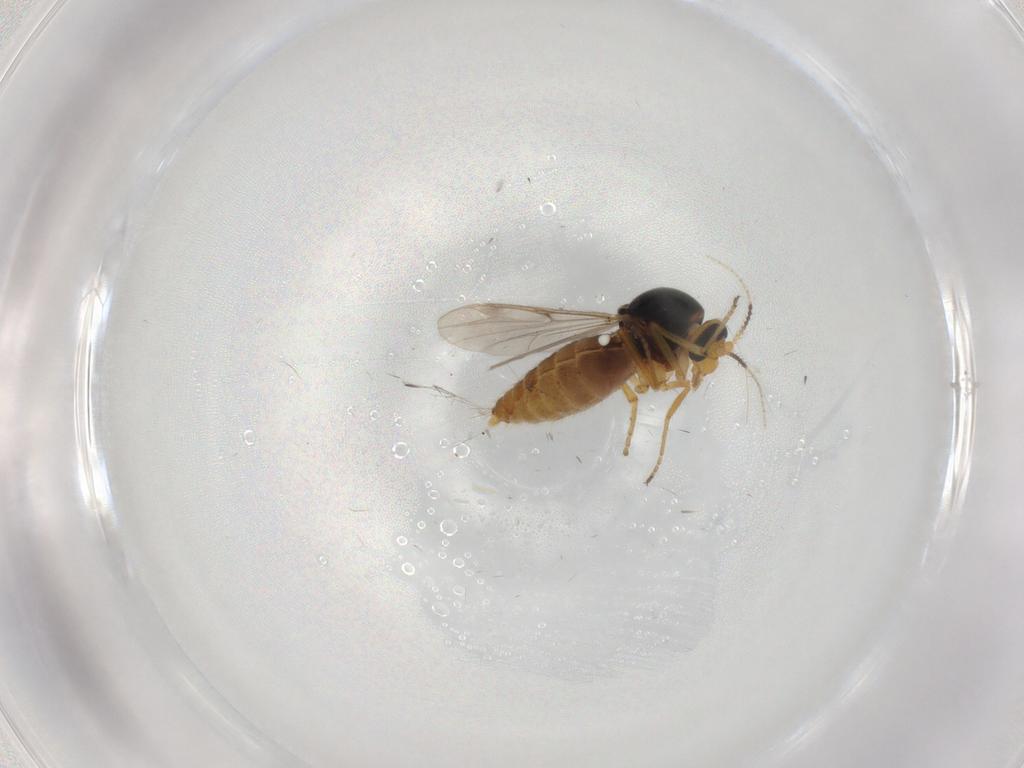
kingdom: Animalia
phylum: Arthropoda
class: Insecta
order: Diptera
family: Ceratopogonidae
